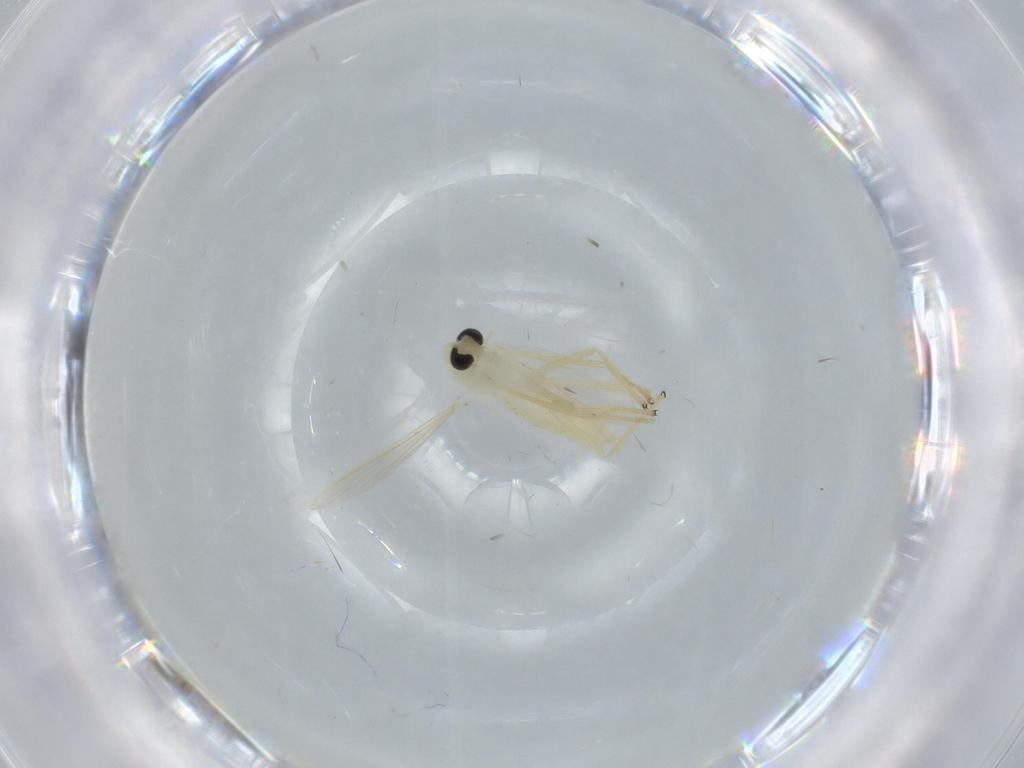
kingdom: Animalia
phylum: Arthropoda
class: Insecta
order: Diptera
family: Chironomidae
